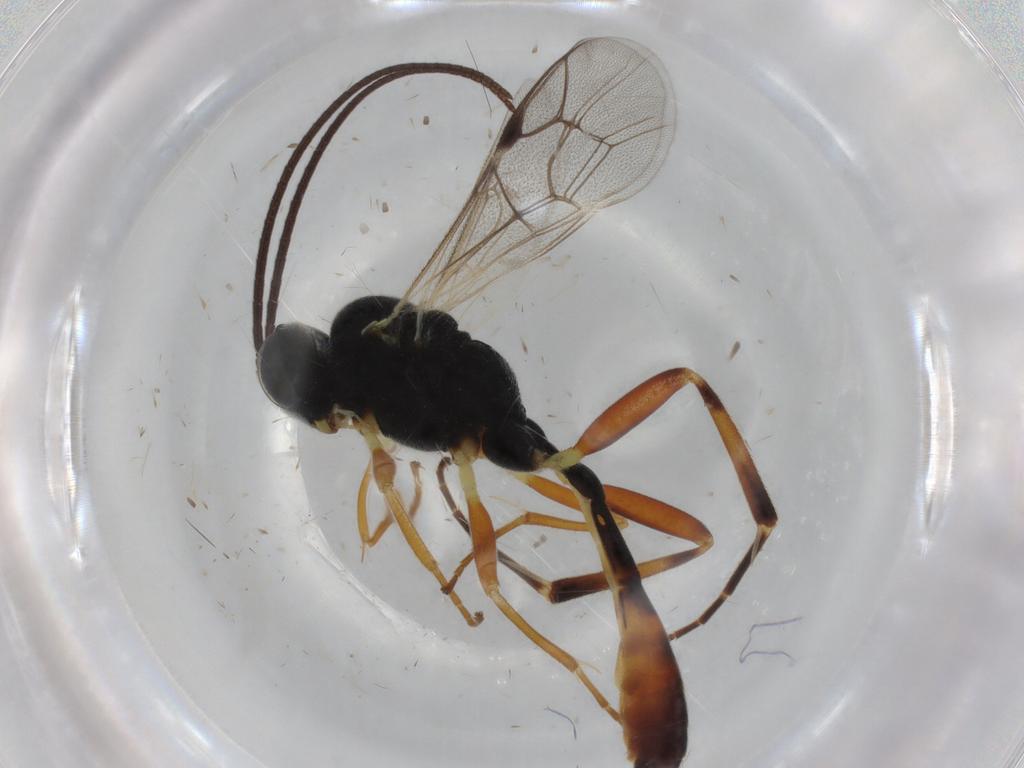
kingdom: Animalia
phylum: Arthropoda
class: Insecta
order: Hymenoptera
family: Ichneumonidae
